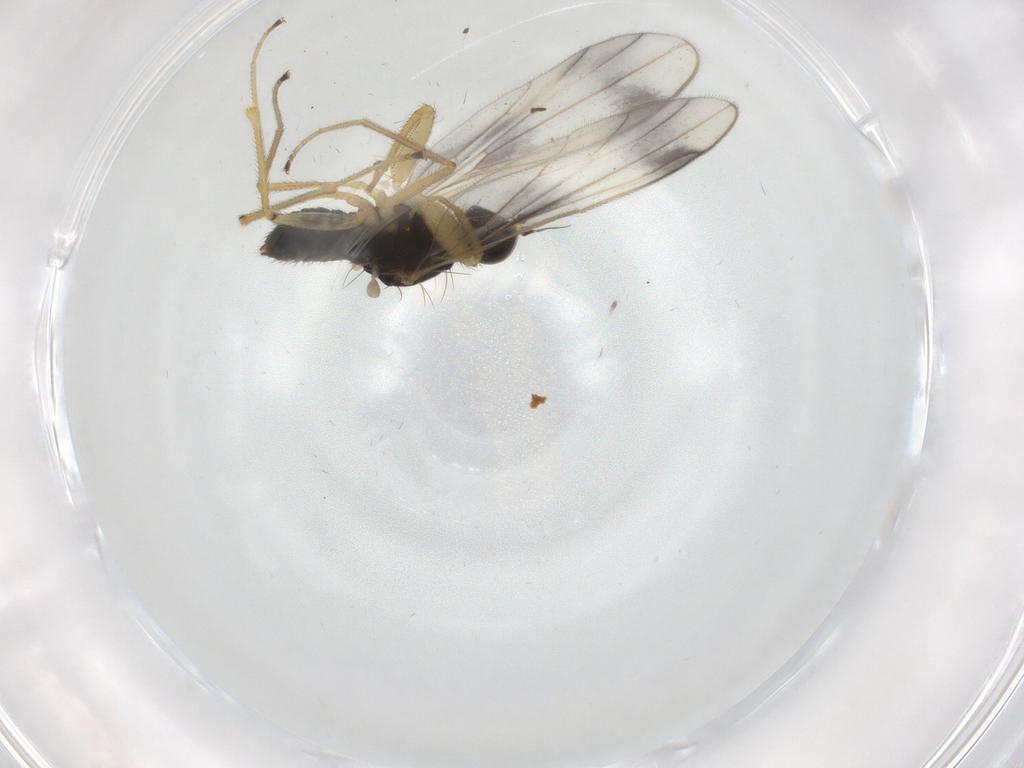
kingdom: Animalia
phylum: Arthropoda
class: Insecta
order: Diptera
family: Empididae
